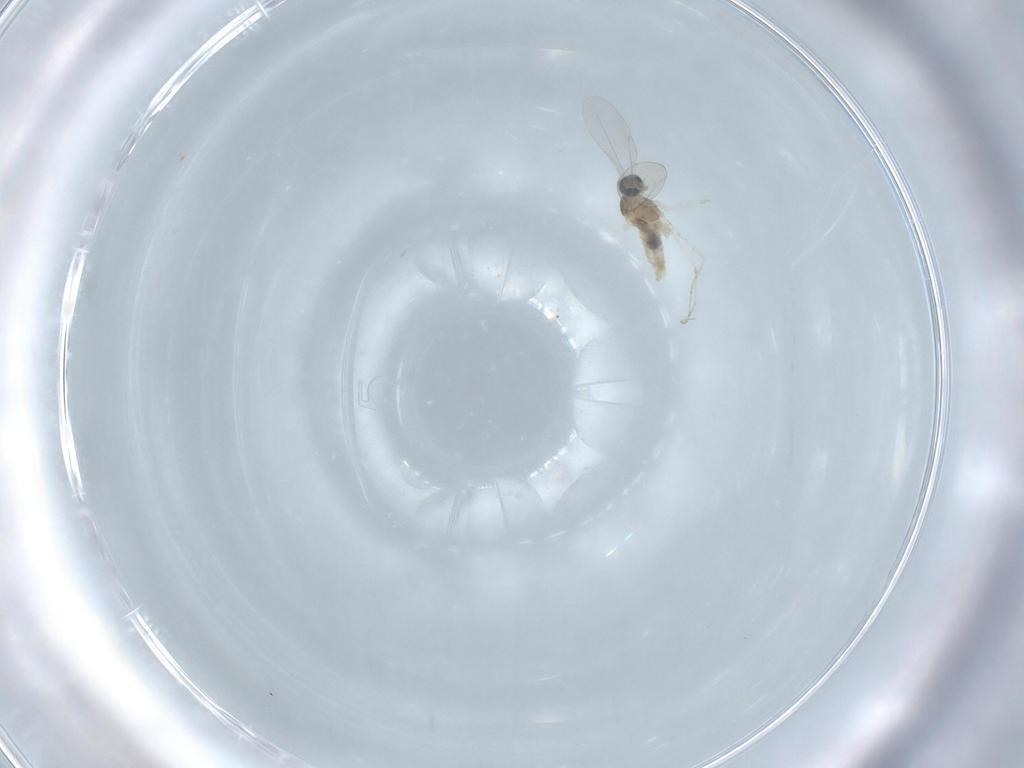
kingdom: Animalia
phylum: Arthropoda
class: Insecta
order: Diptera
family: Cecidomyiidae
